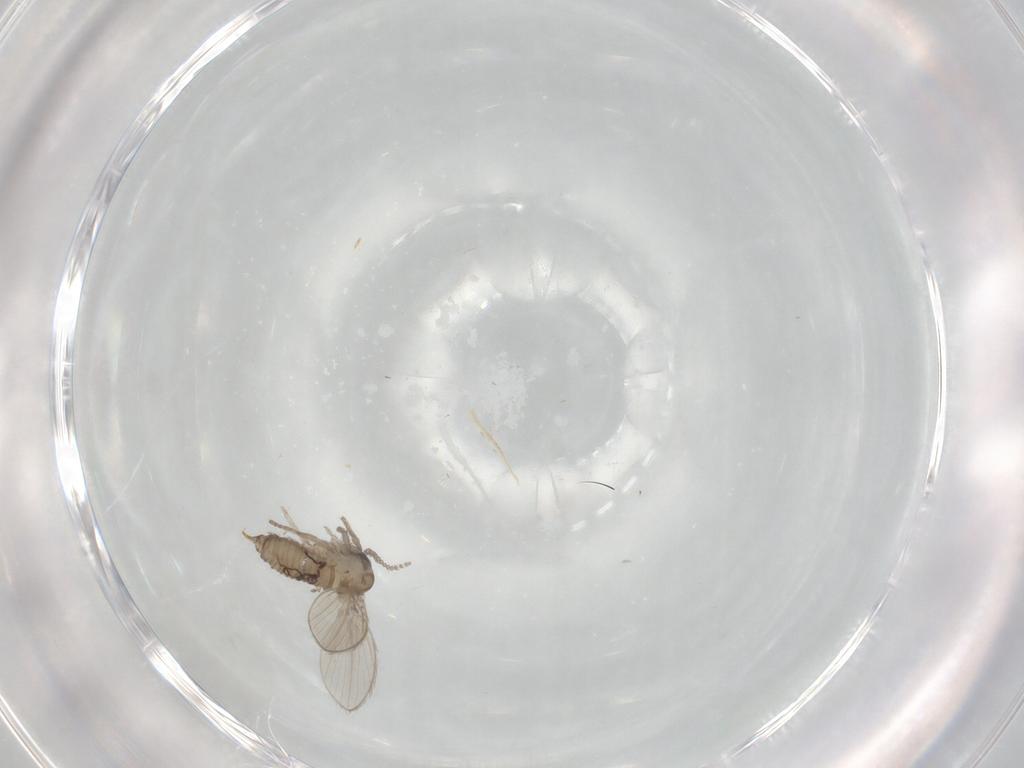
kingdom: Animalia
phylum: Arthropoda
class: Insecta
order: Diptera
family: Psychodidae
